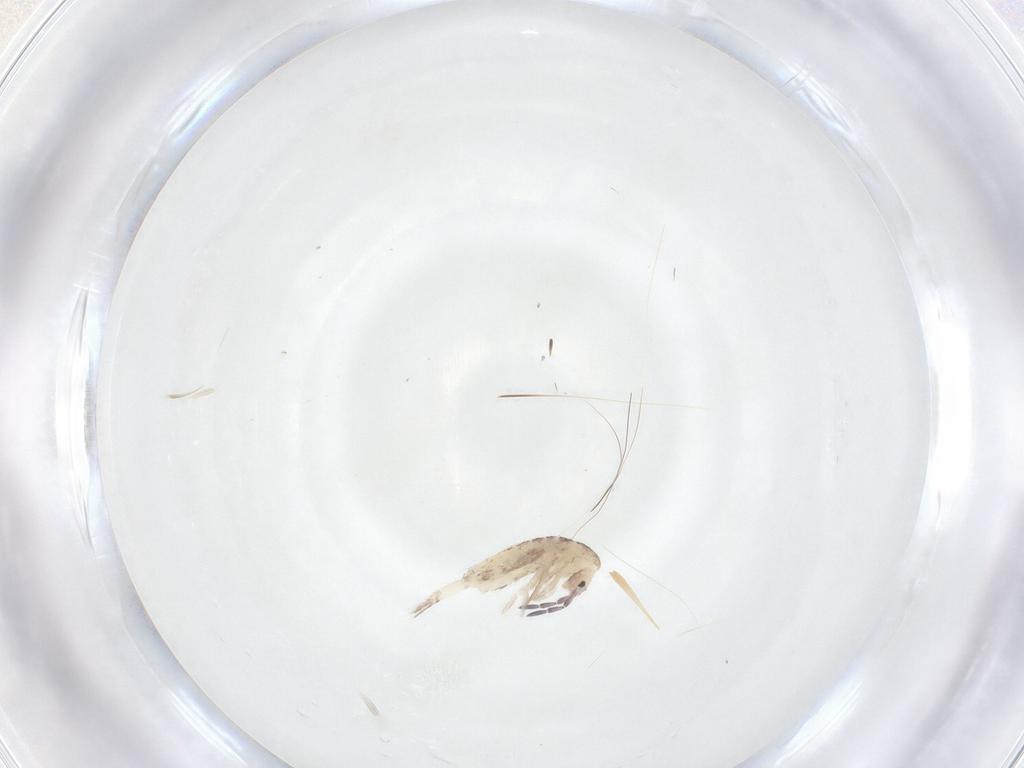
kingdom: Animalia
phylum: Arthropoda
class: Collembola
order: Entomobryomorpha
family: Entomobryidae
